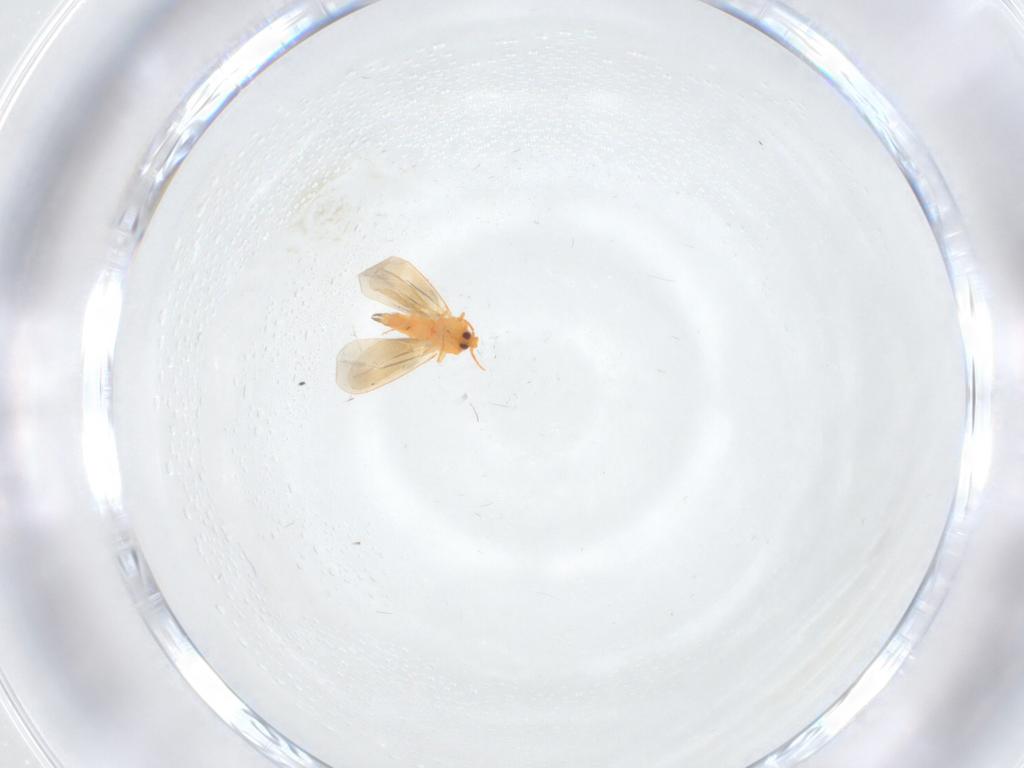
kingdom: Animalia
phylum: Arthropoda
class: Insecta
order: Hemiptera
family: Aleyrodidae
